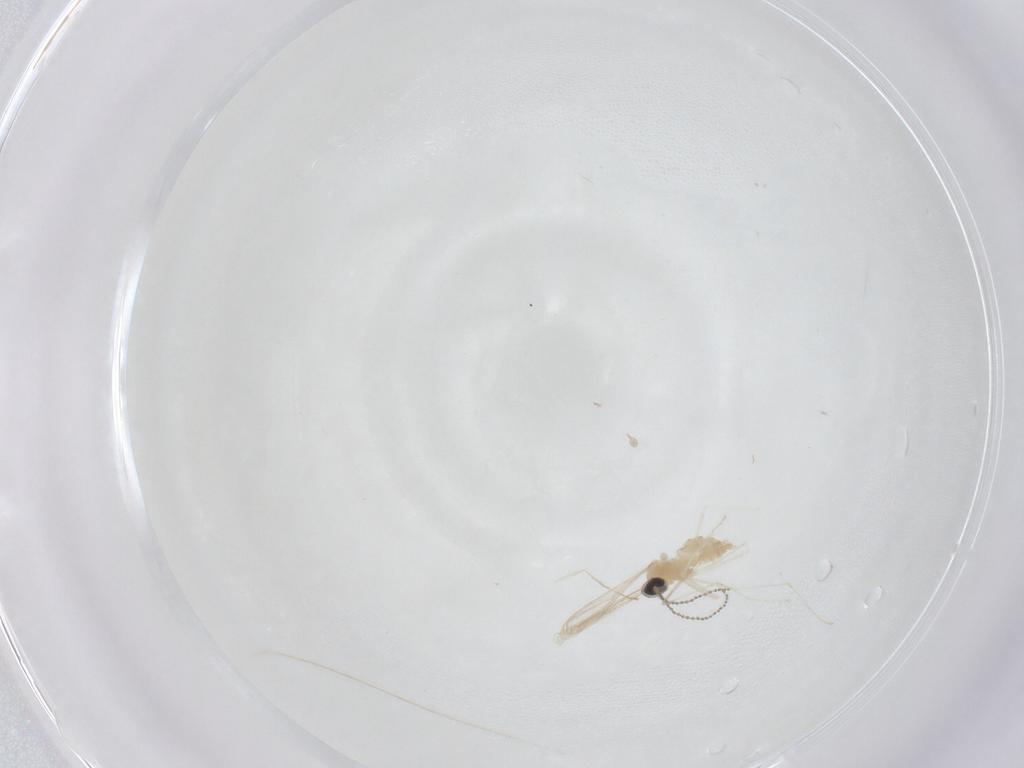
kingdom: Animalia
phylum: Arthropoda
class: Insecta
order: Diptera
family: Cecidomyiidae
